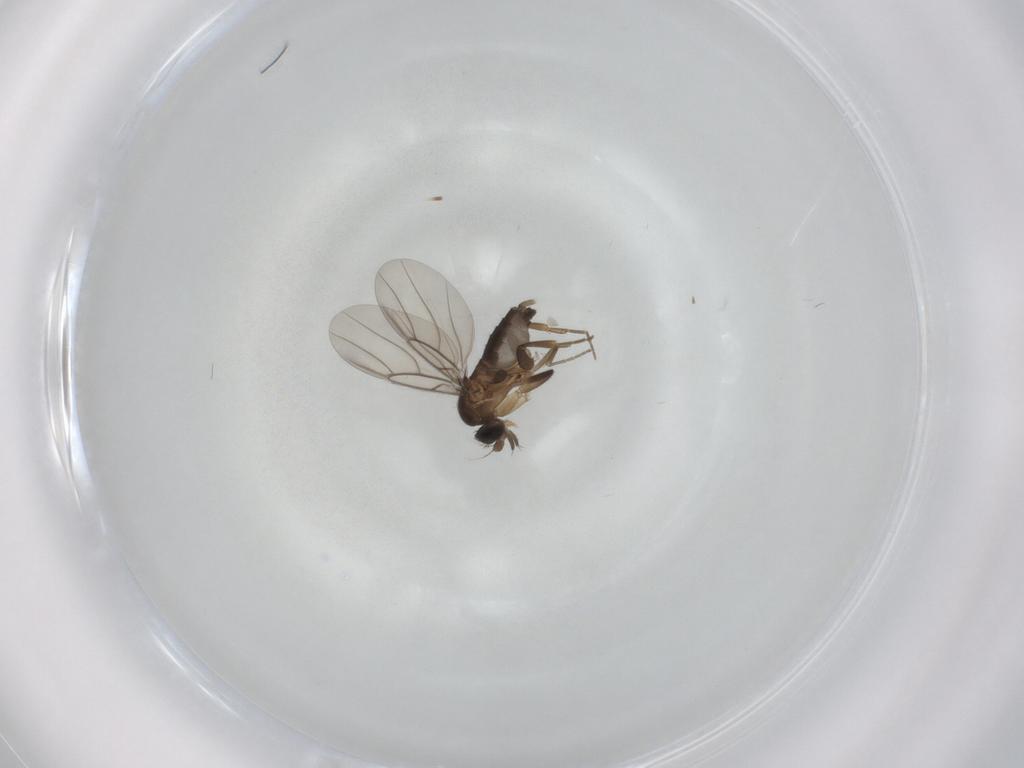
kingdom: Animalia
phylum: Arthropoda
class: Insecta
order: Diptera
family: Phoridae
